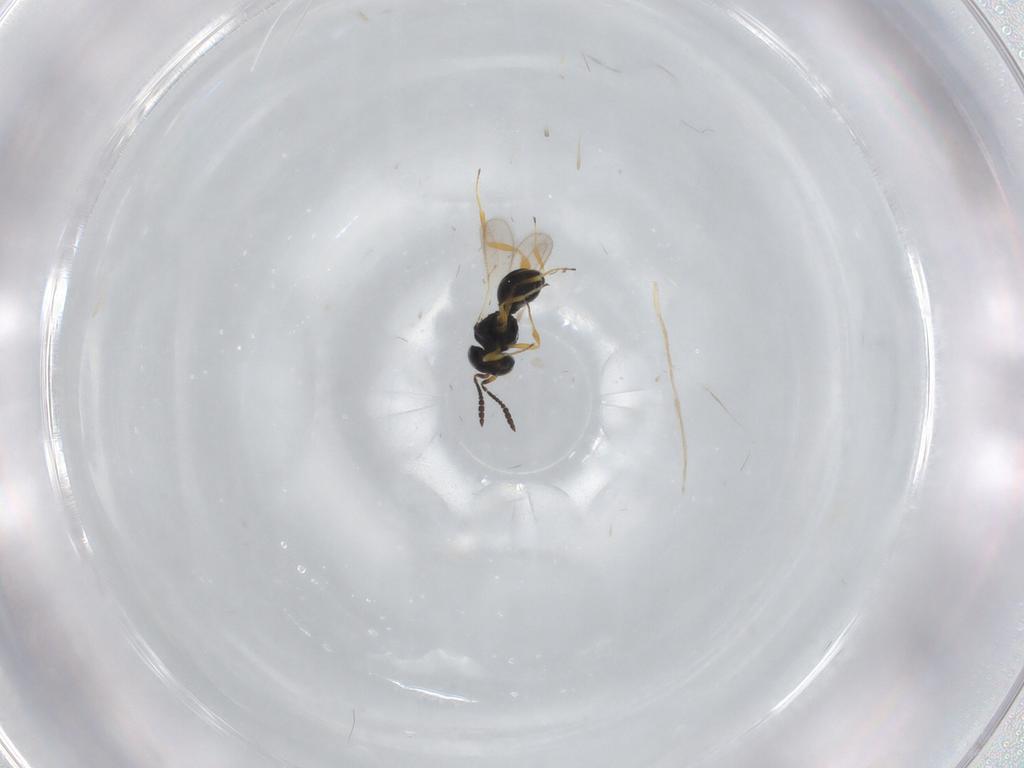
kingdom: Animalia
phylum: Arthropoda
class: Insecta
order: Hymenoptera
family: Scelionidae
